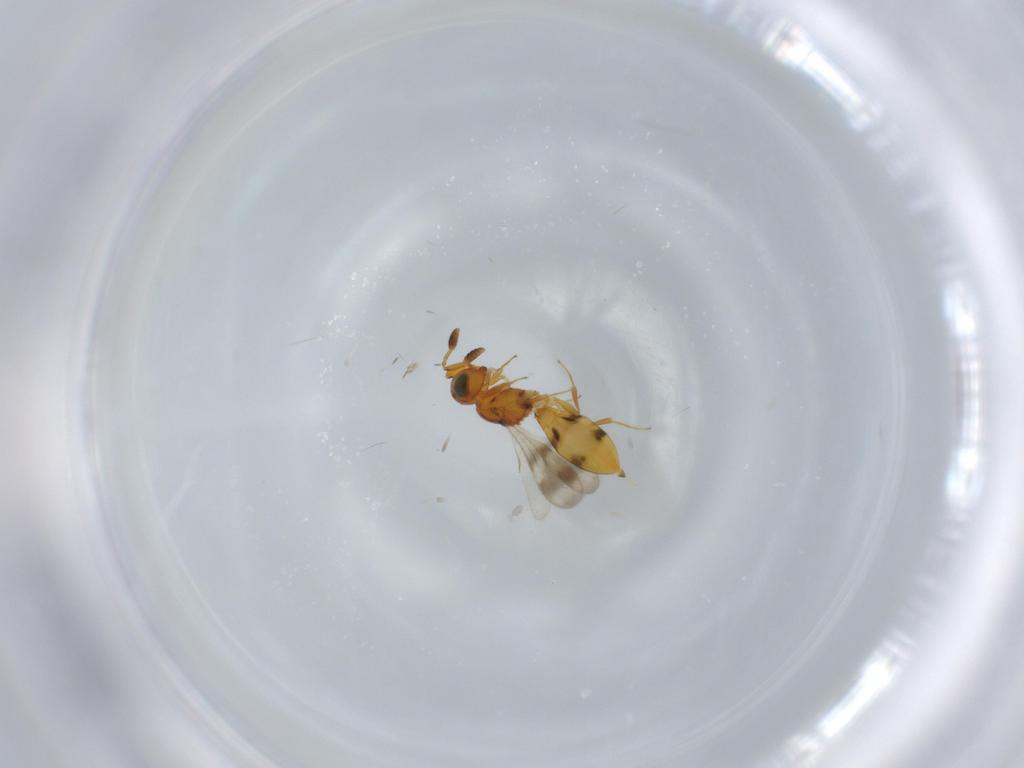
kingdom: Animalia
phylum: Arthropoda
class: Insecta
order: Hymenoptera
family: Scelionidae
